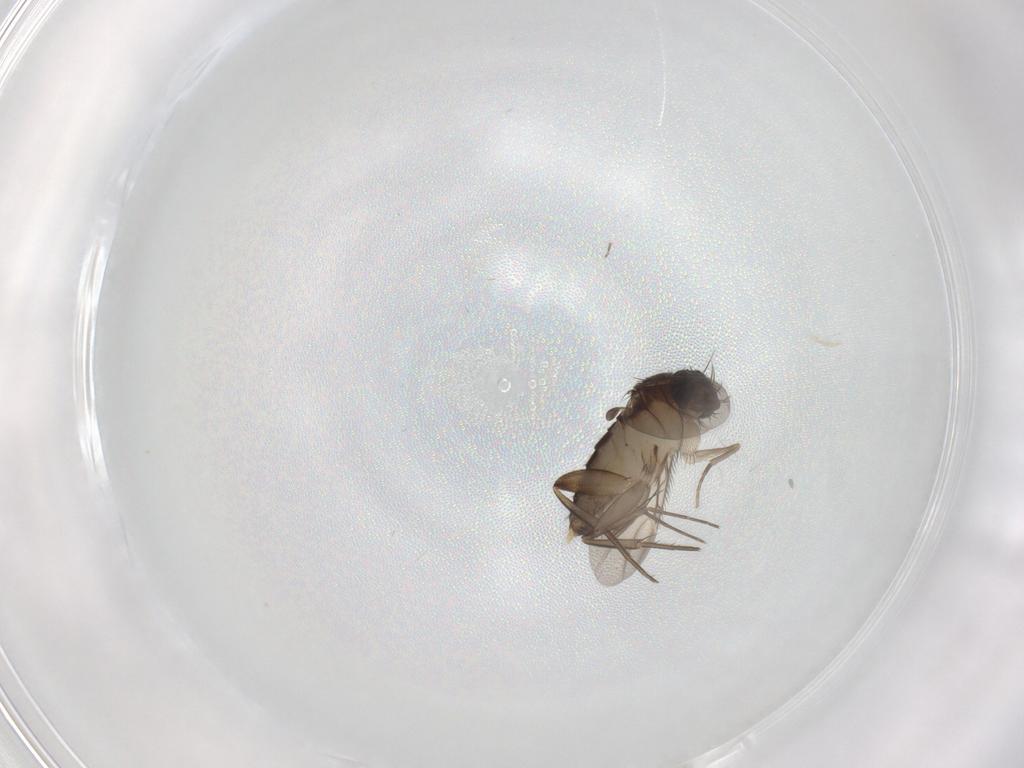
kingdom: Animalia
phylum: Arthropoda
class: Insecta
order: Diptera
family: Phoridae
